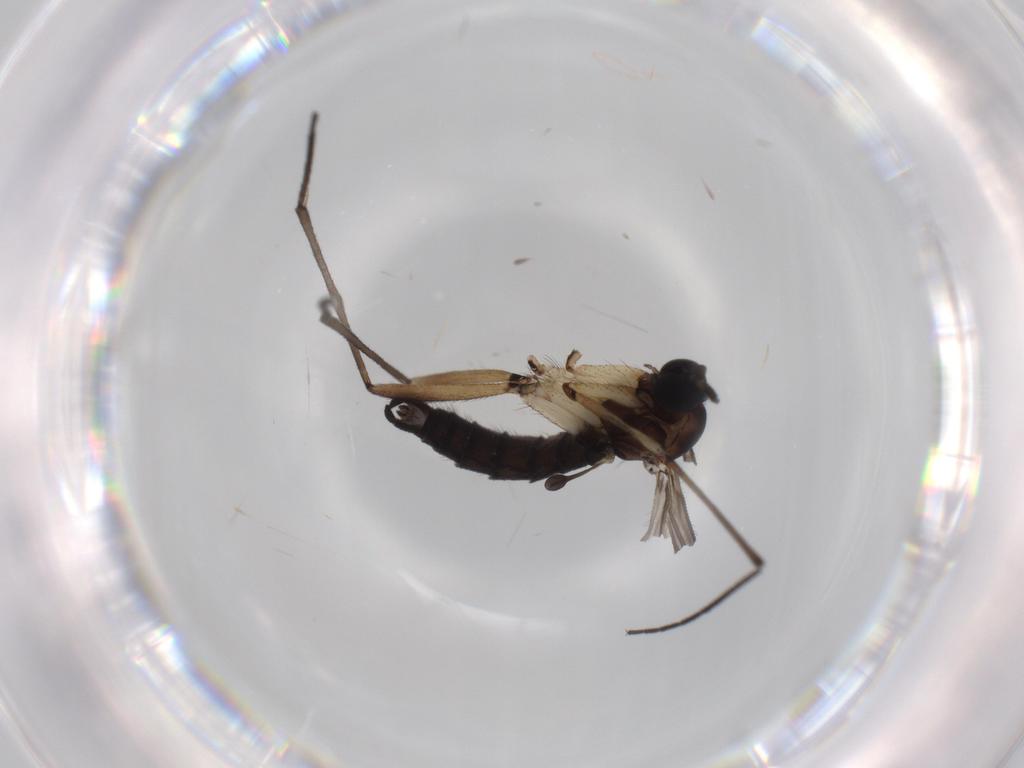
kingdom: Animalia
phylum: Arthropoda
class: Insecta
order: Diptera
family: Sciaridae
